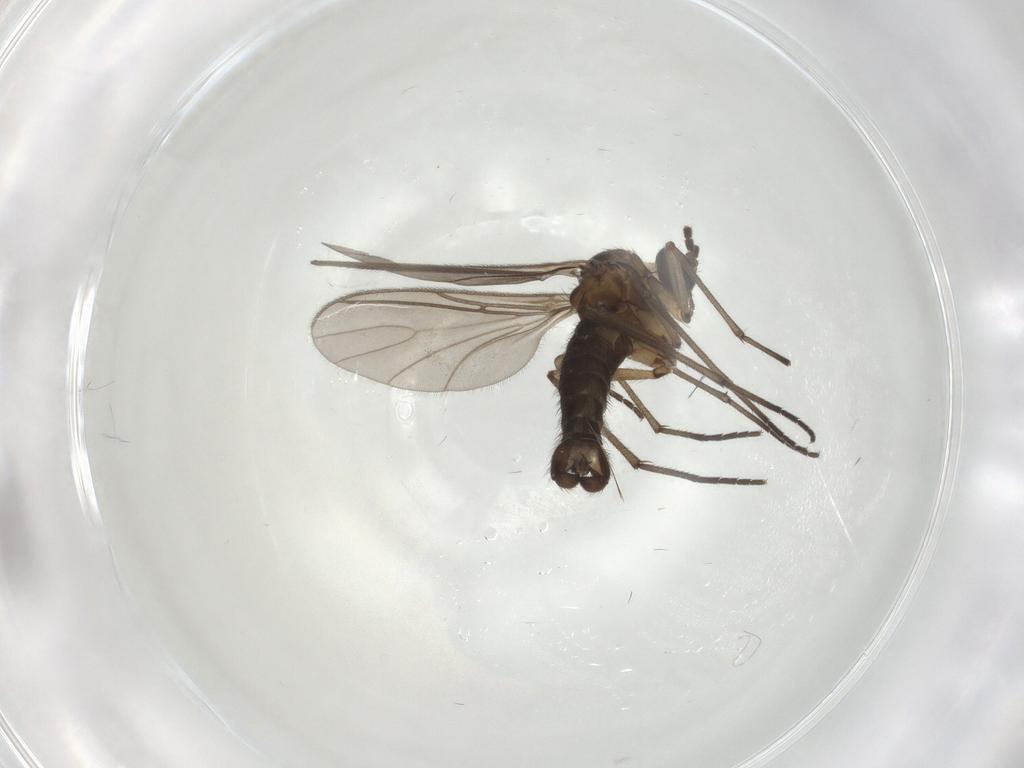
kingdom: Animalia
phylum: Arthropoda
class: Insecta
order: Diptera
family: Sciaridae
